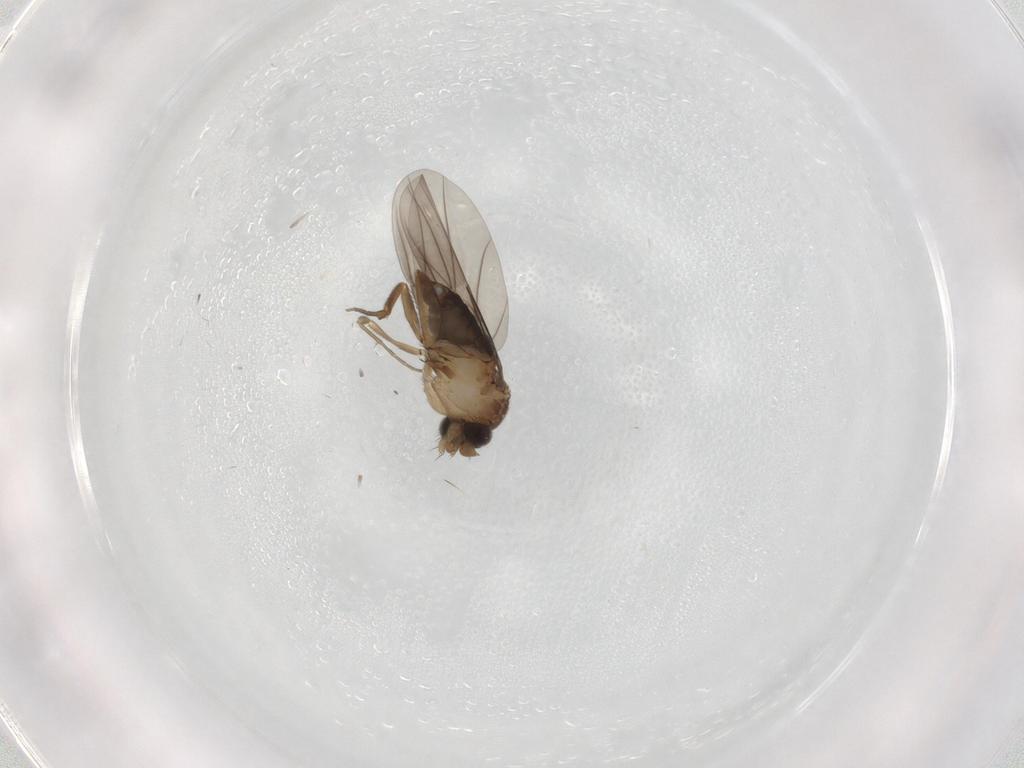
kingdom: Animalia
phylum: Arthropoda
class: Insecta
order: Diptera
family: Phoridae
